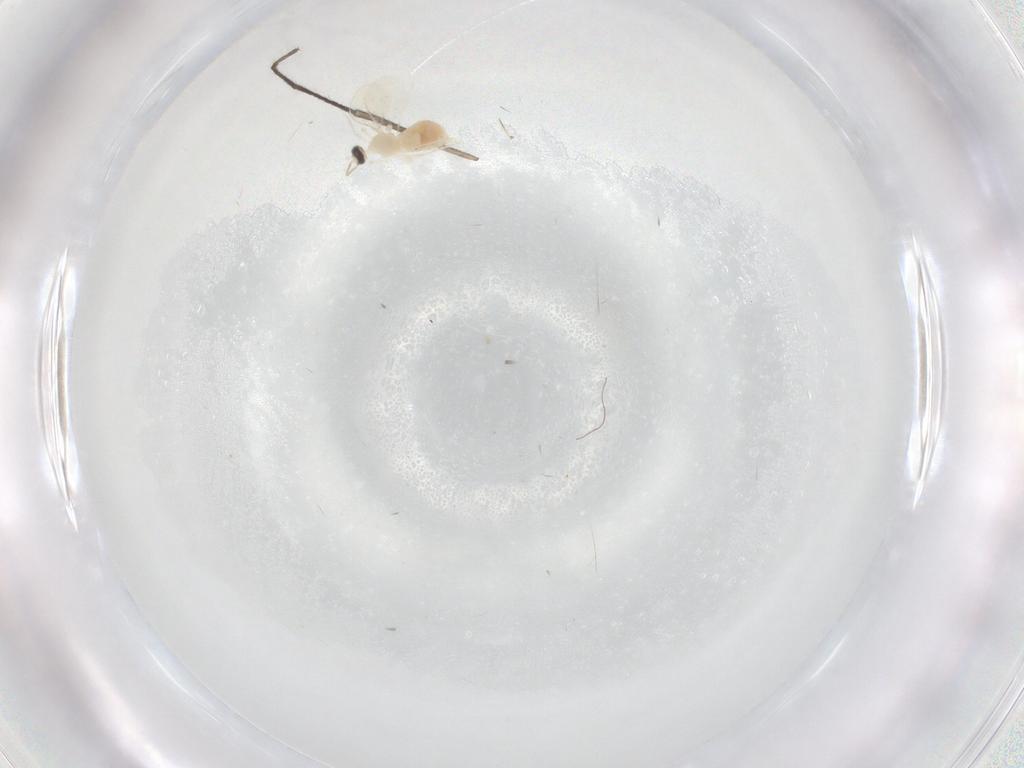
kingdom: Animalia
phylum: Arthropoda
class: Insecta
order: Diptera
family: Cecidomyiidae
